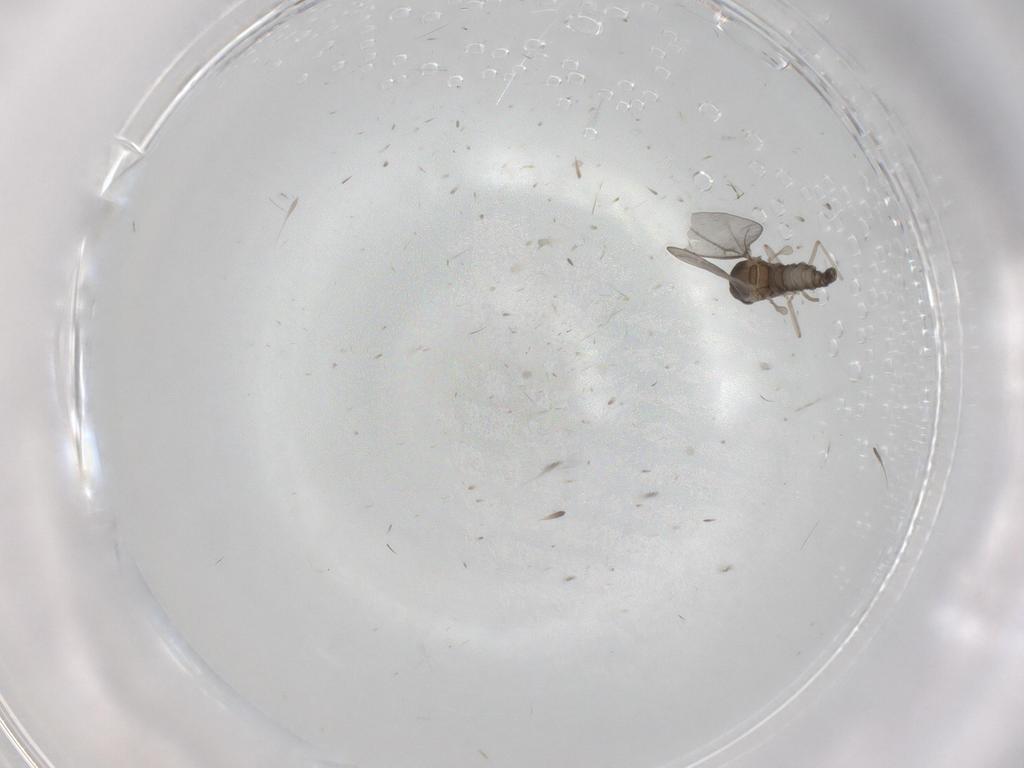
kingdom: Animalia
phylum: Arthropoda
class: Insecta
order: Diptera
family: Cecidomyiidae
